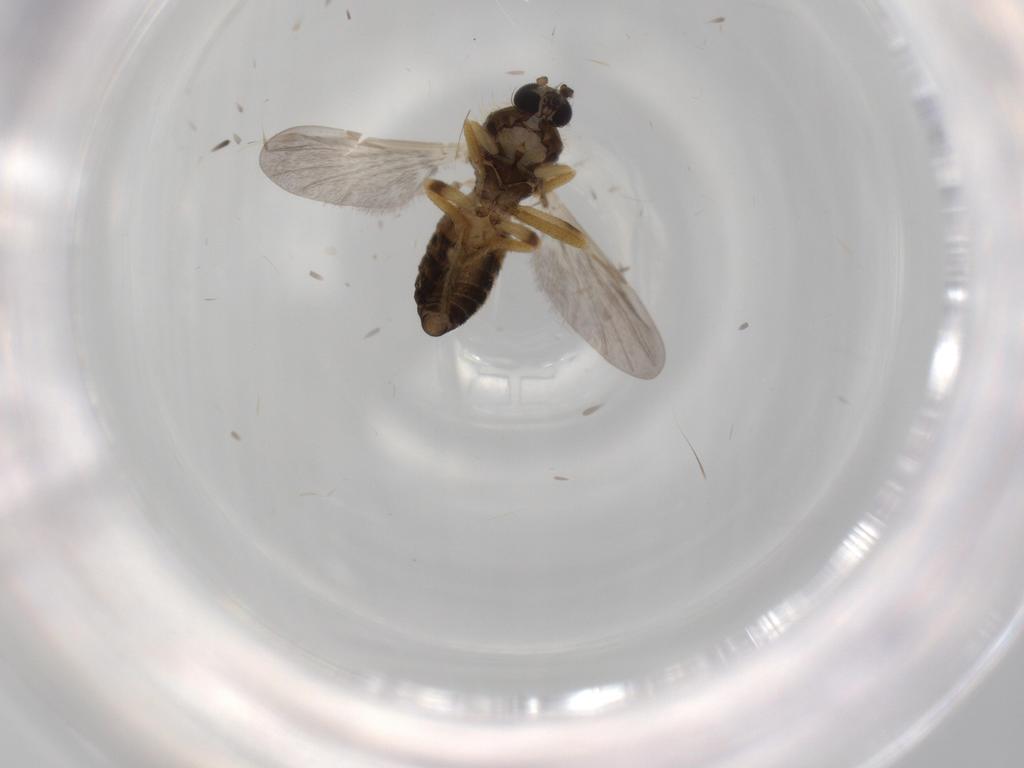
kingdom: Animalia
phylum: Arthropoda
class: Insecta
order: Diptera
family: Ceratopogonidae
